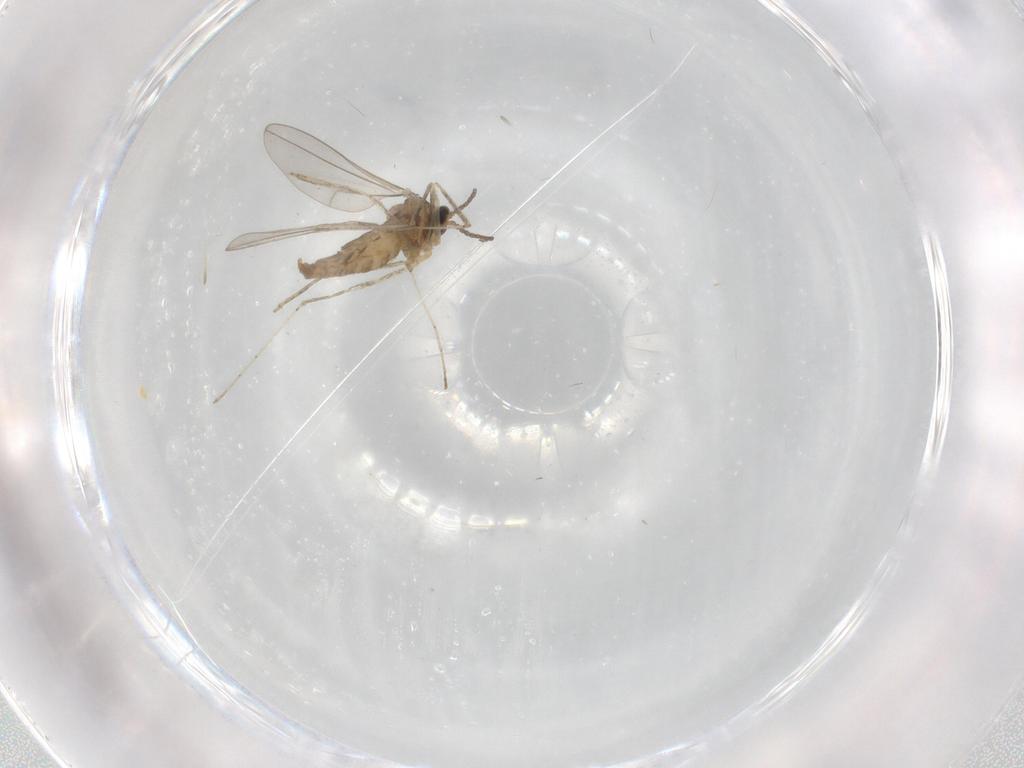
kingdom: Animalia
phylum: Arthropoda
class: Insecta
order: Diptera
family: Cecidomyiidae
